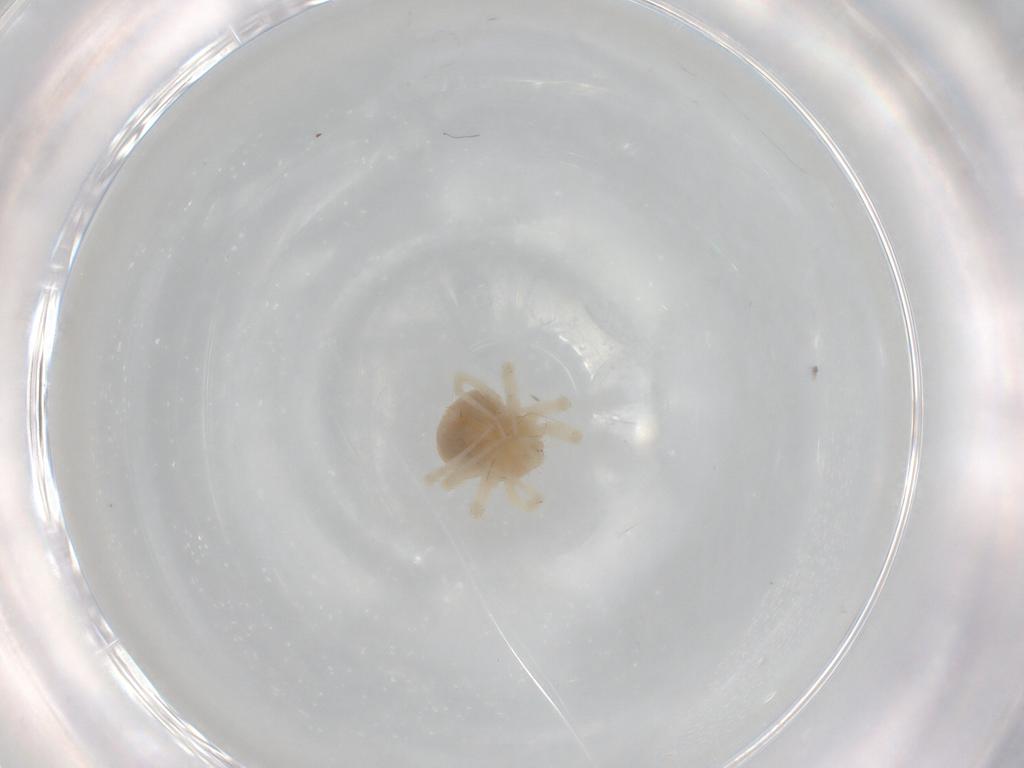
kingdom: Animalia
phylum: Arthropoda
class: Arachnida
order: Trombidiformes
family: Anystidae
